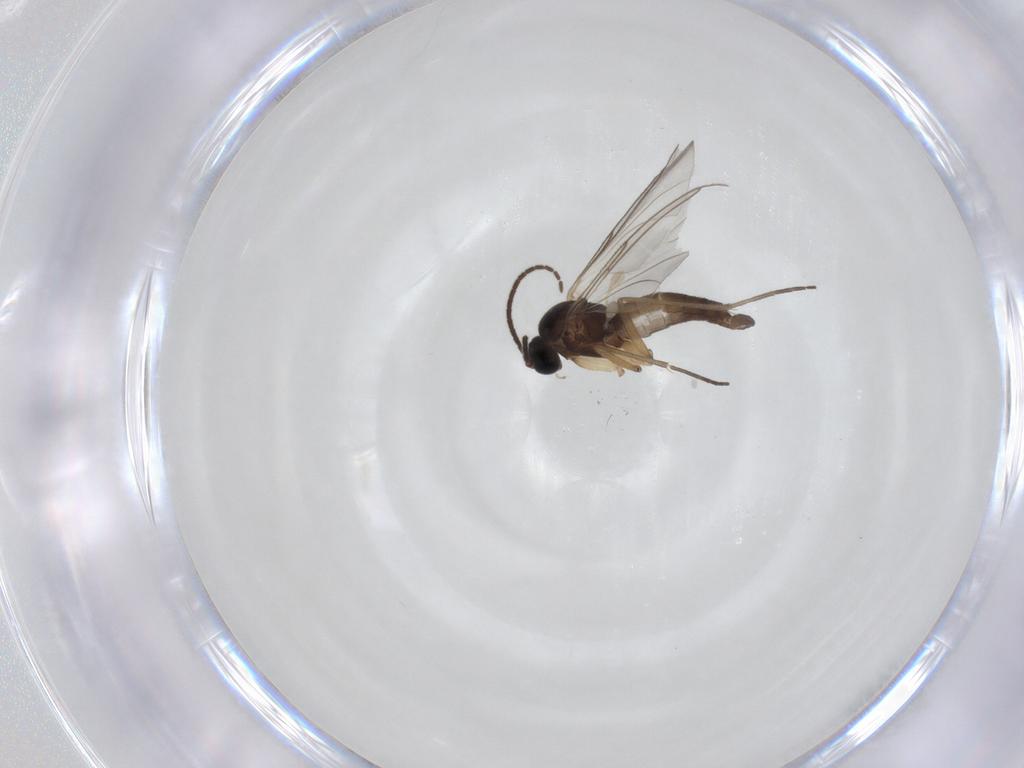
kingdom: Animalia
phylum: Arthropoda
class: Insecta
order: Diptera
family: Sciaridae
